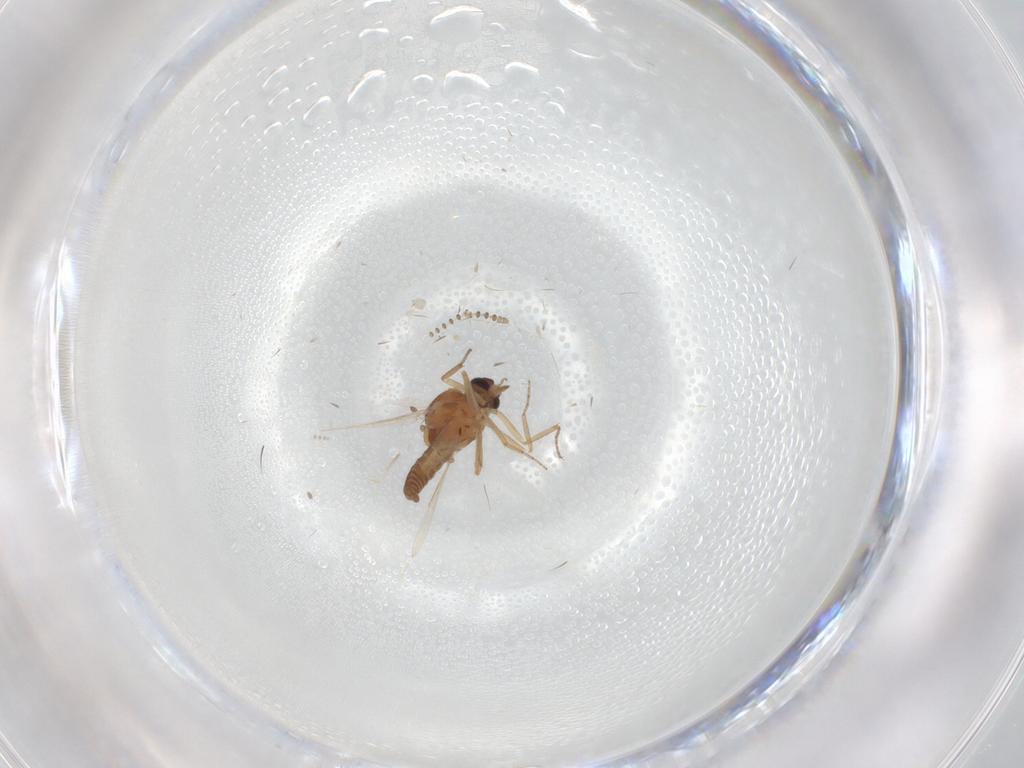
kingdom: Animalia
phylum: Arthropoda
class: Insecta
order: Diptera
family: Ceratopogonidae
